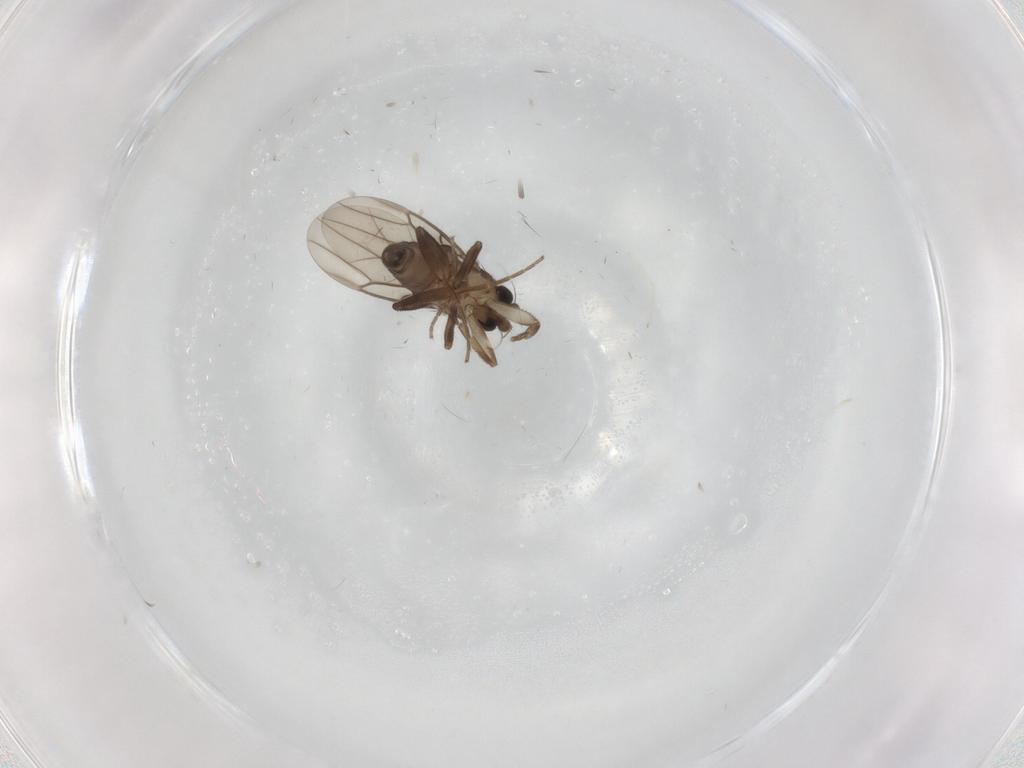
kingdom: Animalia
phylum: Arthropoda
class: Insecta
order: Diptera
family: Phoridae
